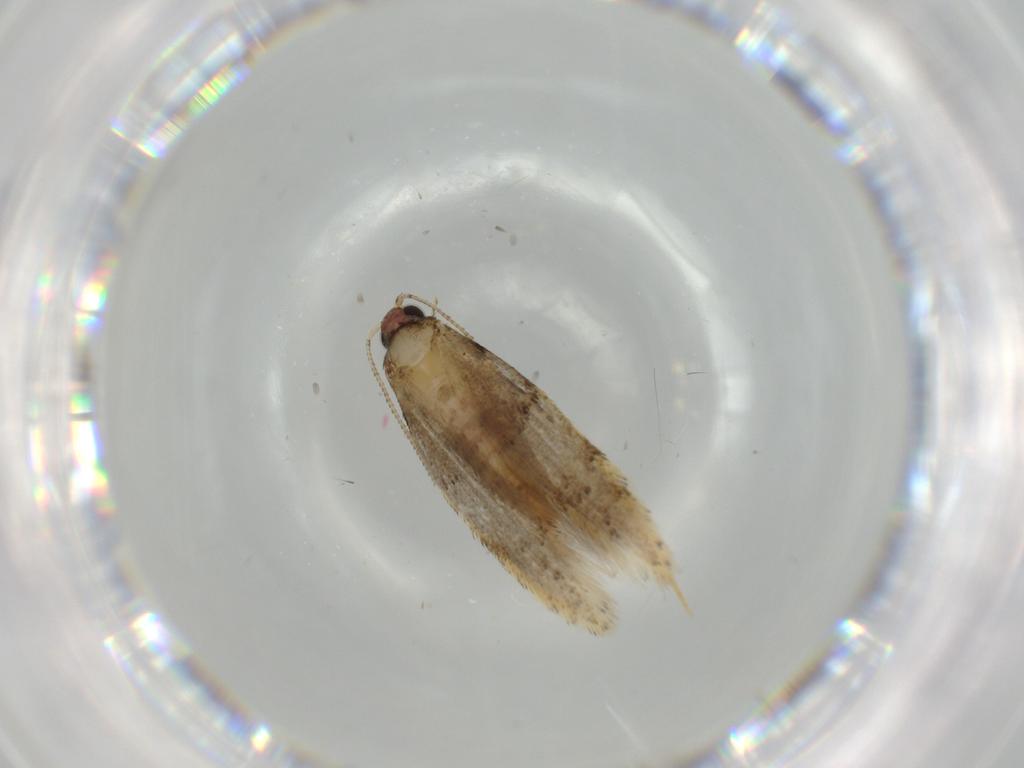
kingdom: Animalia
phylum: Arthropoda
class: Insecta
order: Lepidoptera
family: Tineidae
